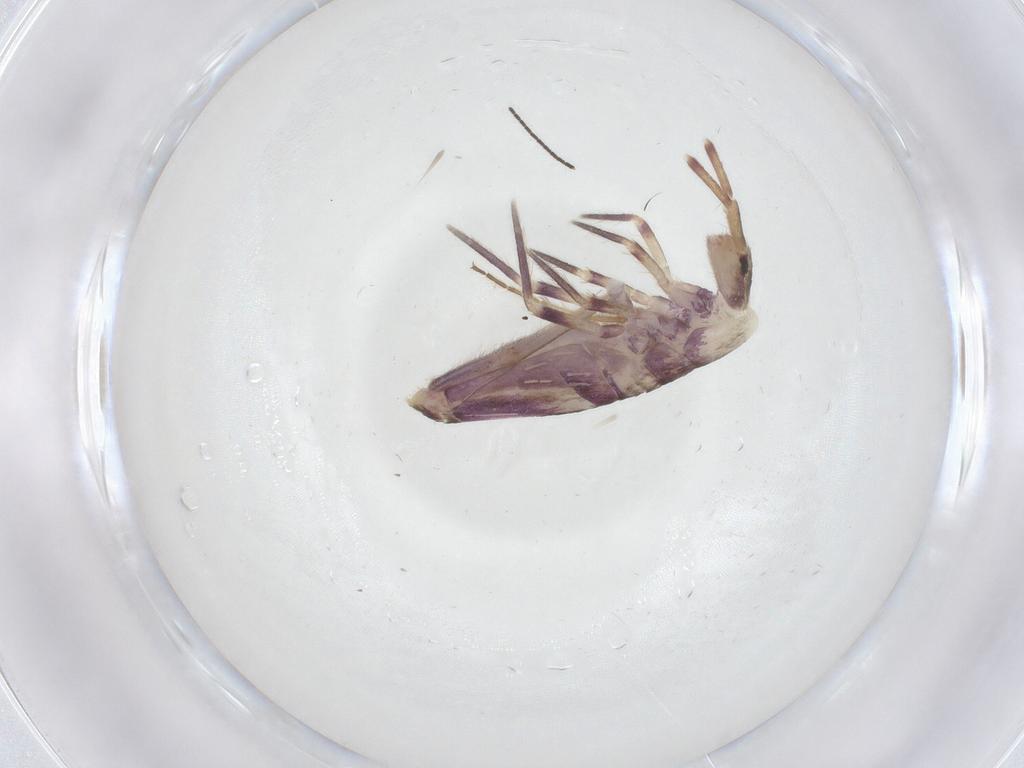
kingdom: Animalia
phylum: Arthropoda
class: Collembola
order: Entomobryomorpha
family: Entomobryidae
